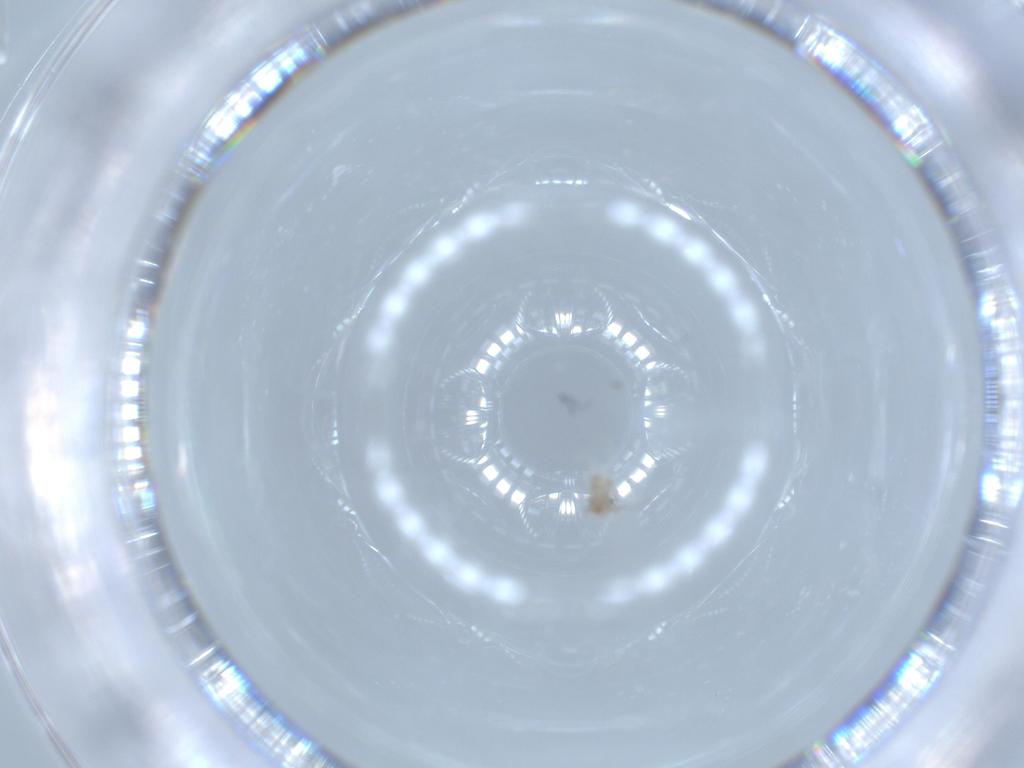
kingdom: Animalia
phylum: Arthropoda
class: Insecta
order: Psocodea
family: Lepidopsocidae
